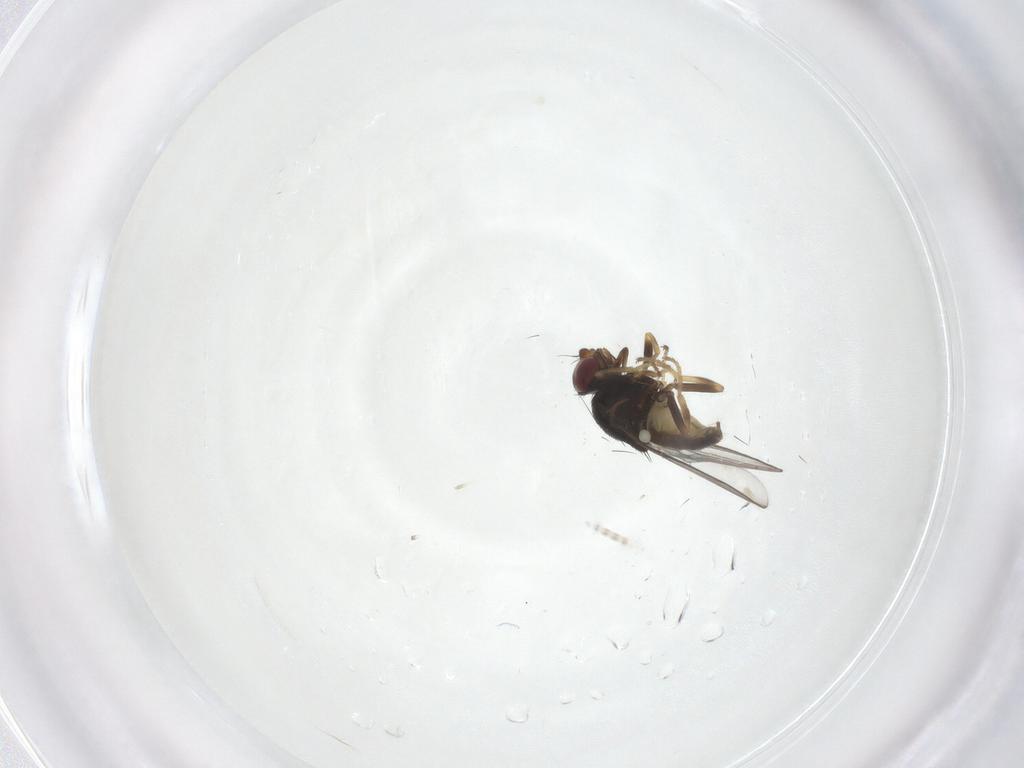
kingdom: Animalia
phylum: Arthropoda
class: Insecta
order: Diptera
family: Chloropidae
